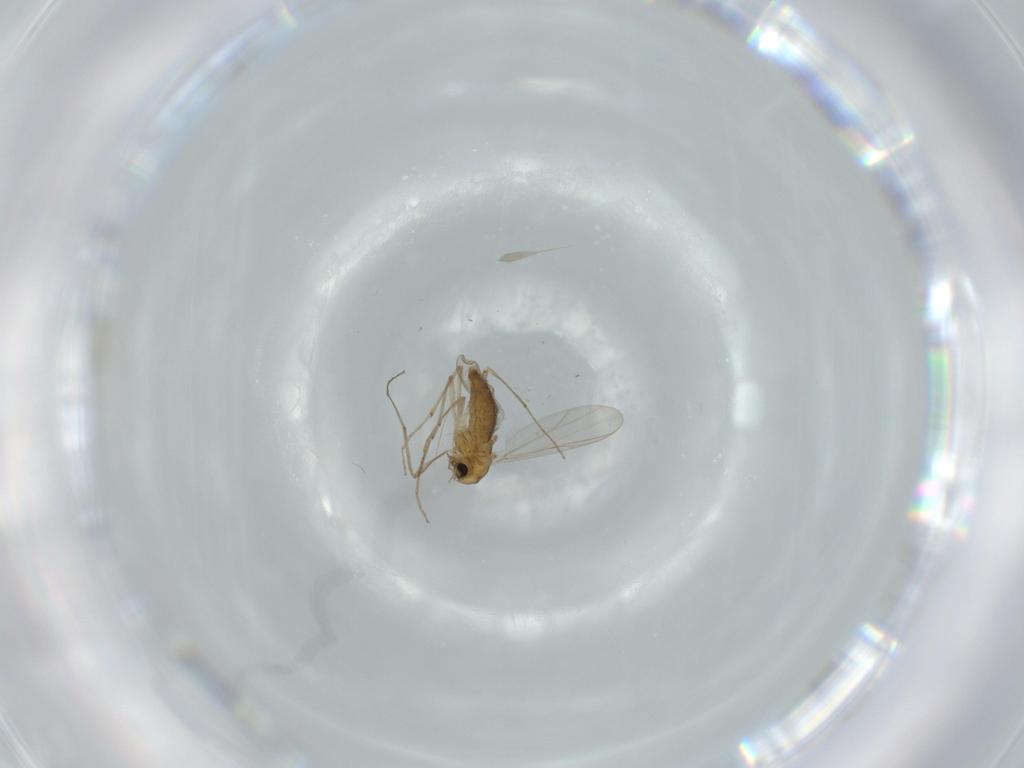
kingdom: Animalia
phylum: Arthropoda
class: Insecta
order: Diptera
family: Chironomidae
